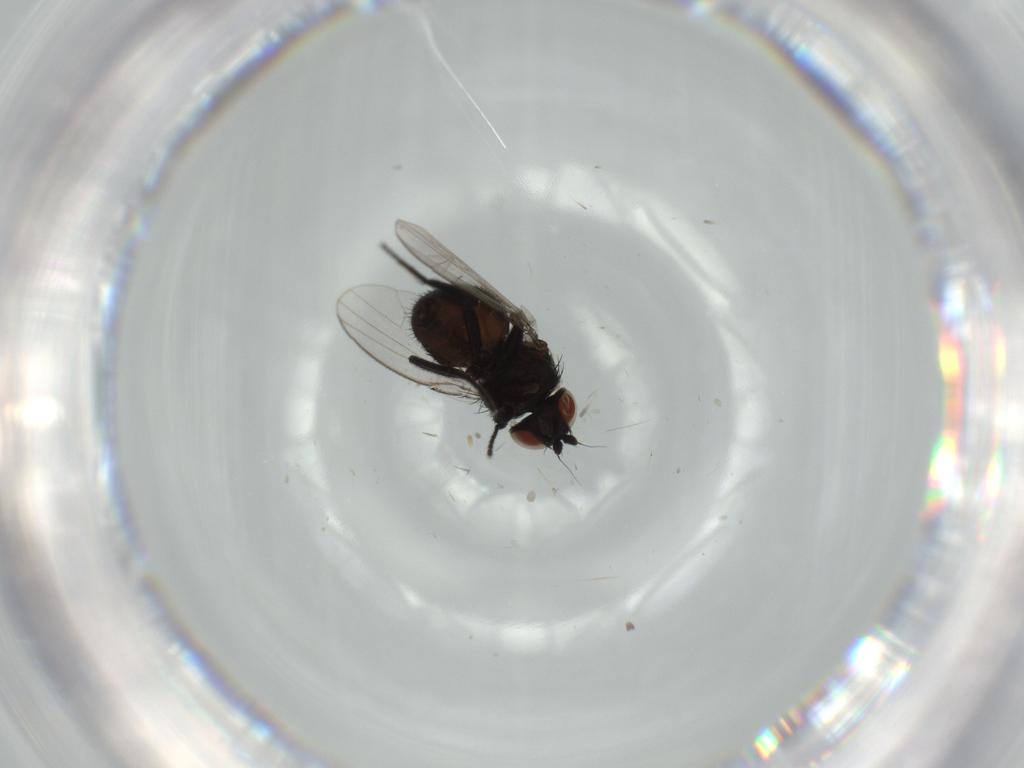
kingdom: Animalia
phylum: Arthropoda
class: Insecta
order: Diptera
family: Milichiidae
